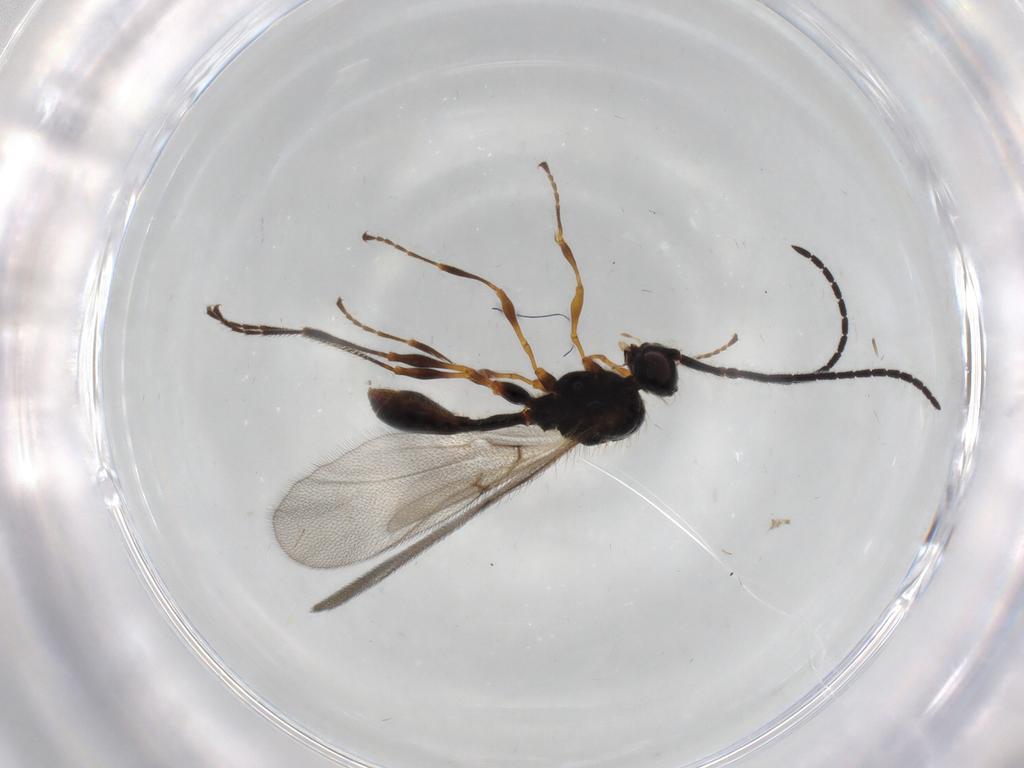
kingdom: Animalia
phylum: Arthropoda
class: Insecta
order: Hymenoptera
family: Diapriidae
